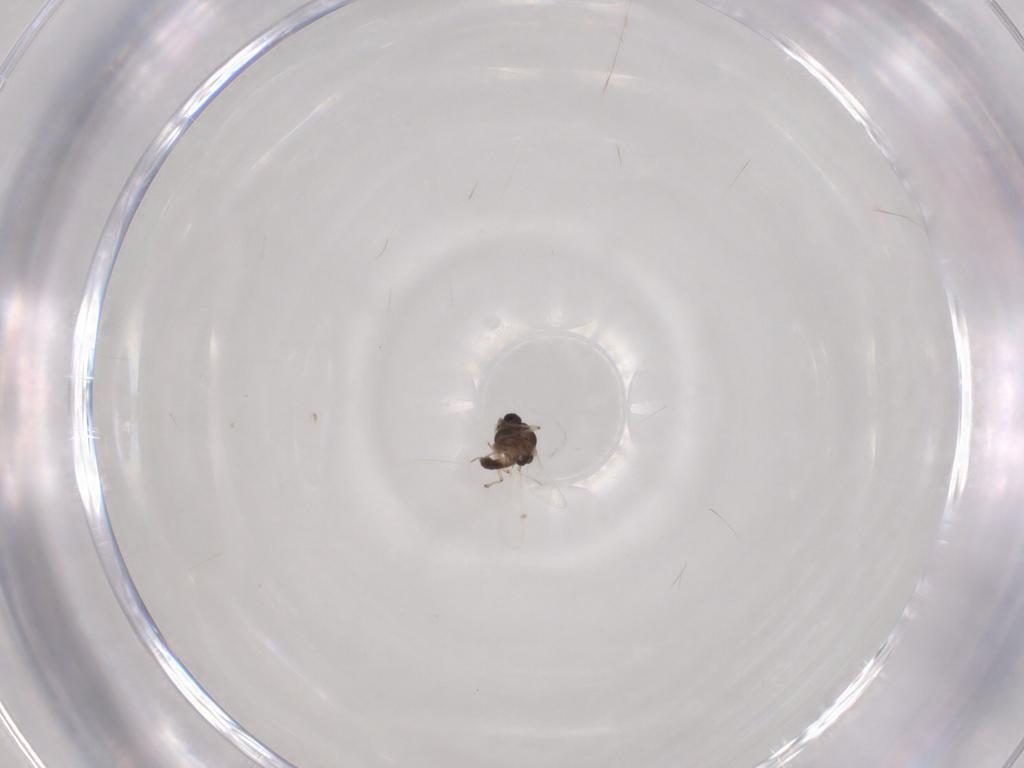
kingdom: Animalia
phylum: Arthropoda
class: Insecta
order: Diptera
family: Chironomidae
